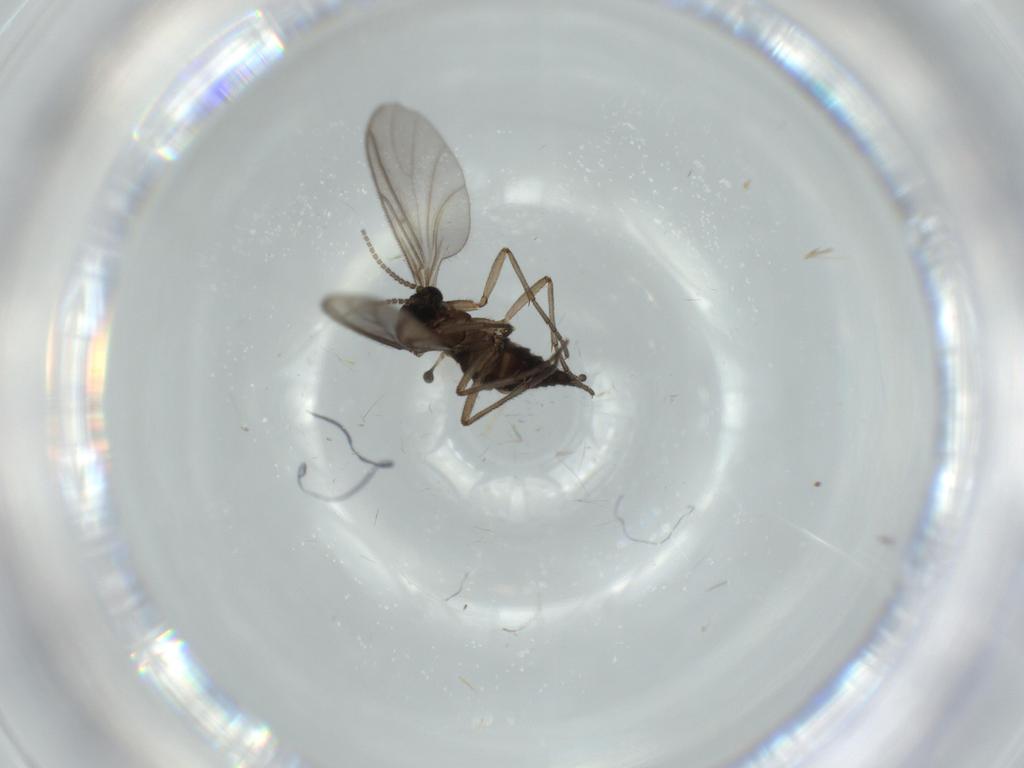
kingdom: Animalia
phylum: Arthropoda
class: Insecta
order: Diptera
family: Sciaridae
